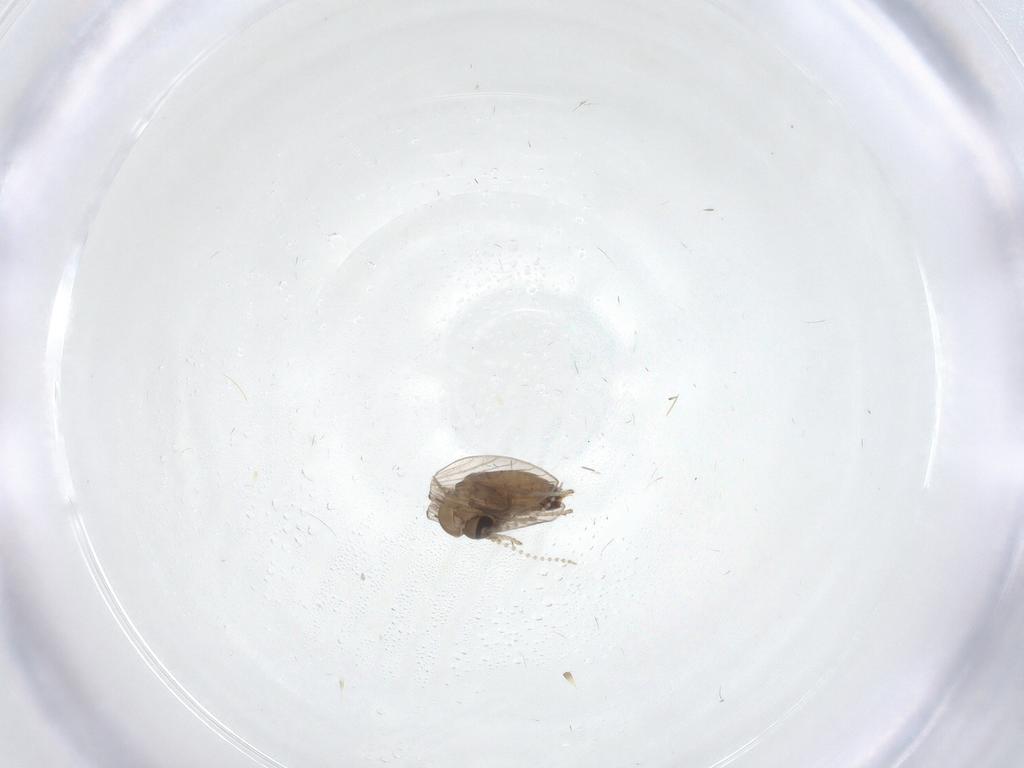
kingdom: Animalia
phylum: Arthropoda
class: Insecta
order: Diptera
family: Psychodidae
